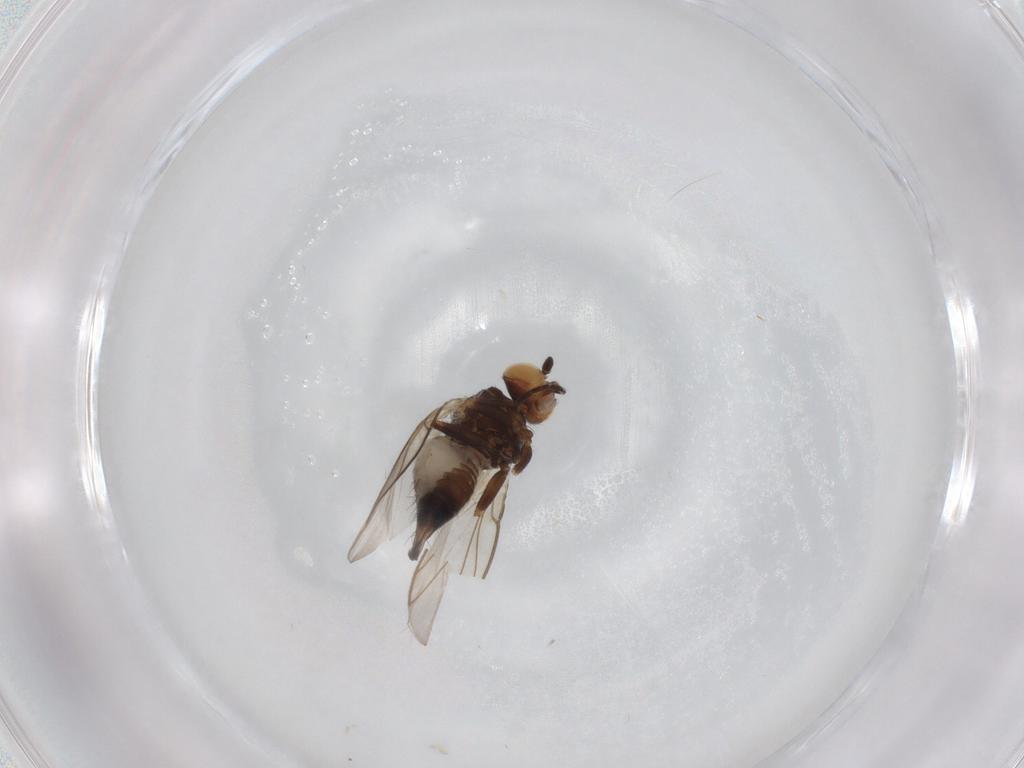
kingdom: Animalia
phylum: Arthropoda
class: Insecta
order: Diptera
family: Agromyzidae
